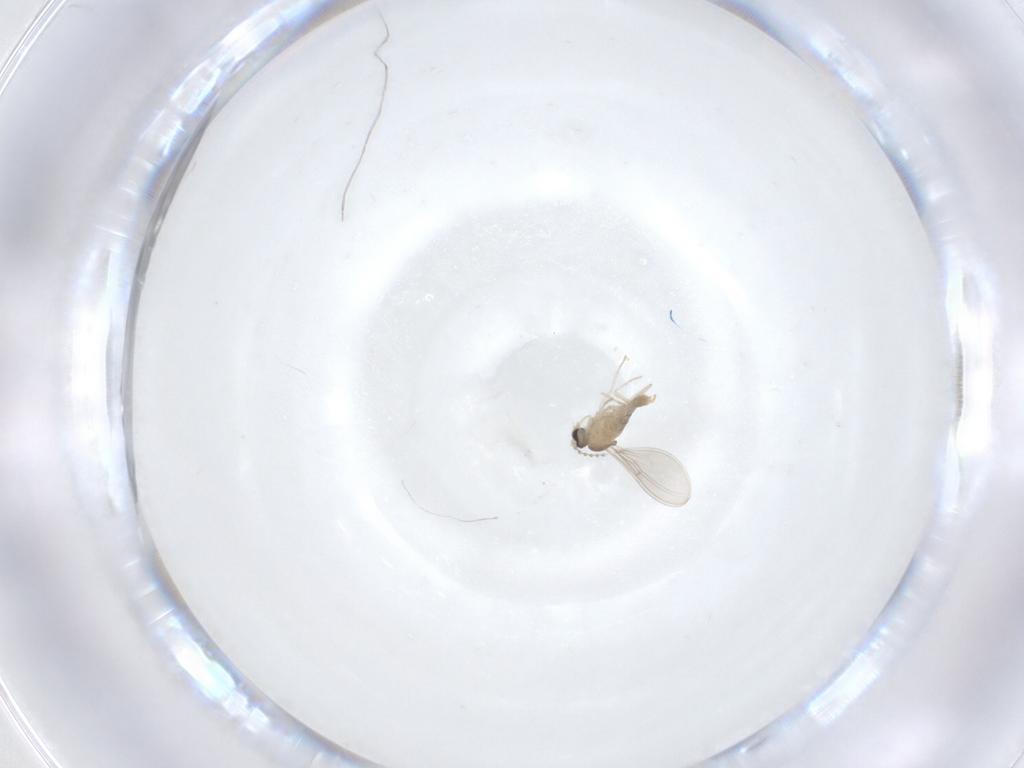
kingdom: Animalia
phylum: Arthropoda
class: Insecta
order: Diptera
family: Cecidomyiidae
